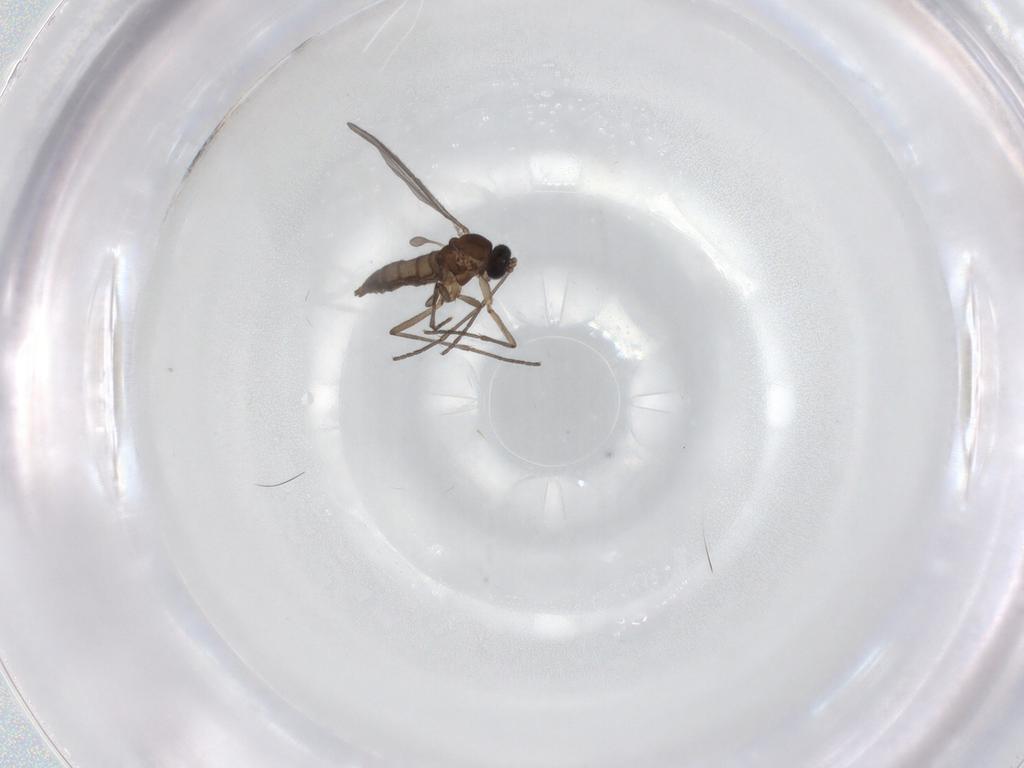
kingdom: Animalia
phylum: Arthropoda
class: Insecta
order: Diptera
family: Sciaridae
